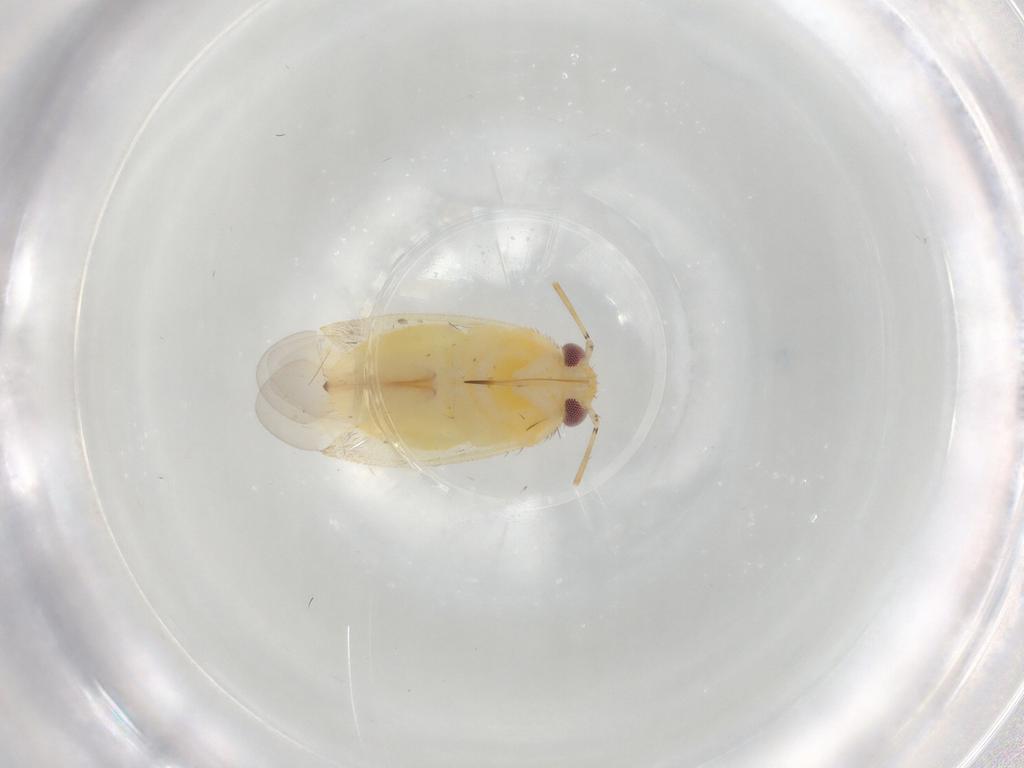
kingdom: Animalia
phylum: Arthropoda
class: Insecta
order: Hemiptera
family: Miridae
